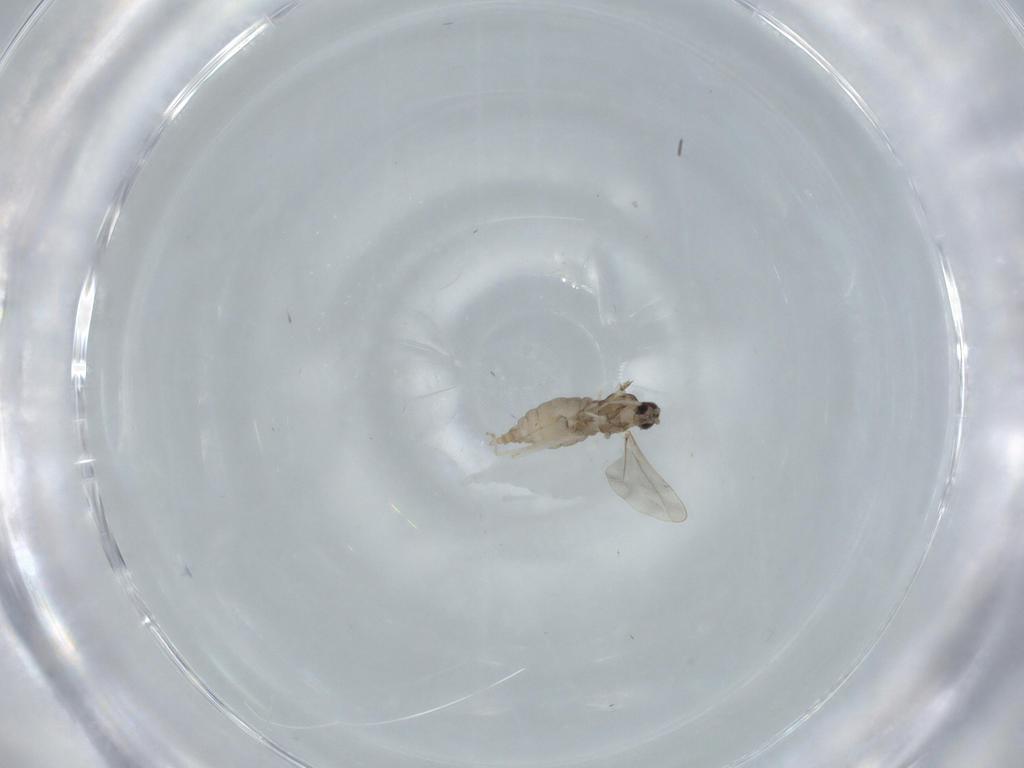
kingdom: Animalia
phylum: Arthropoda
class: Insecta
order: Diptera
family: Cecidomyiidae
